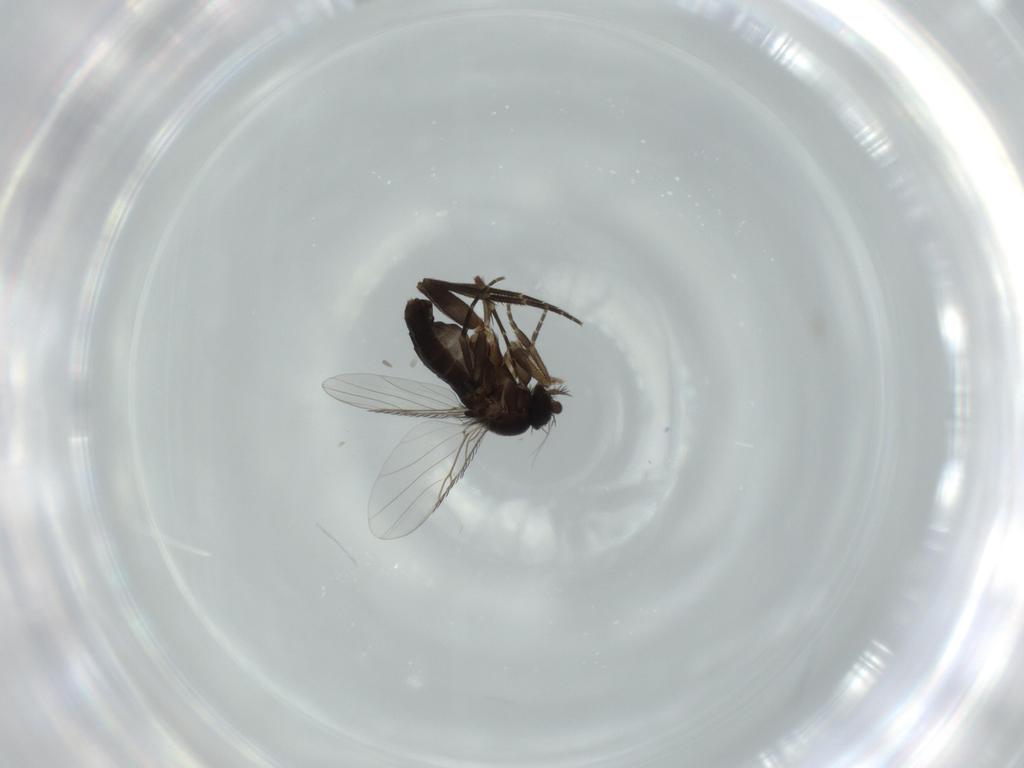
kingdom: Animalia
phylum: Arthropoda
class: Insecta
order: Diptera
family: Phoridae
